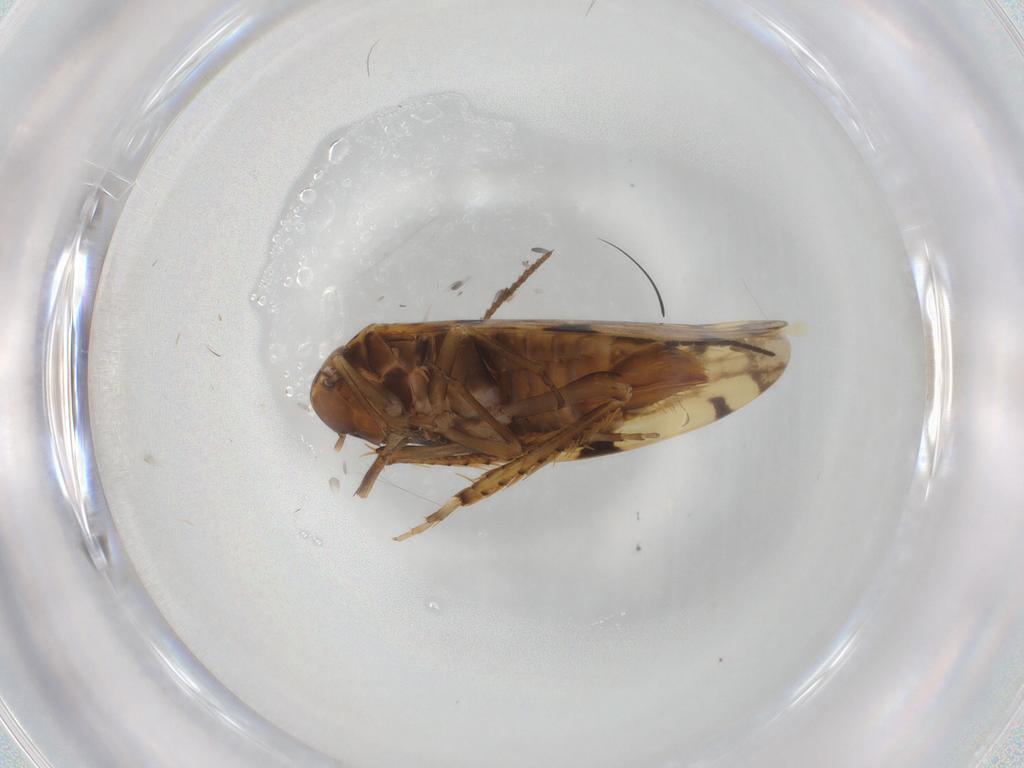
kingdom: Animalia
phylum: Arthropoda
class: Insecta
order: Hemiptera
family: Cicadellidae
